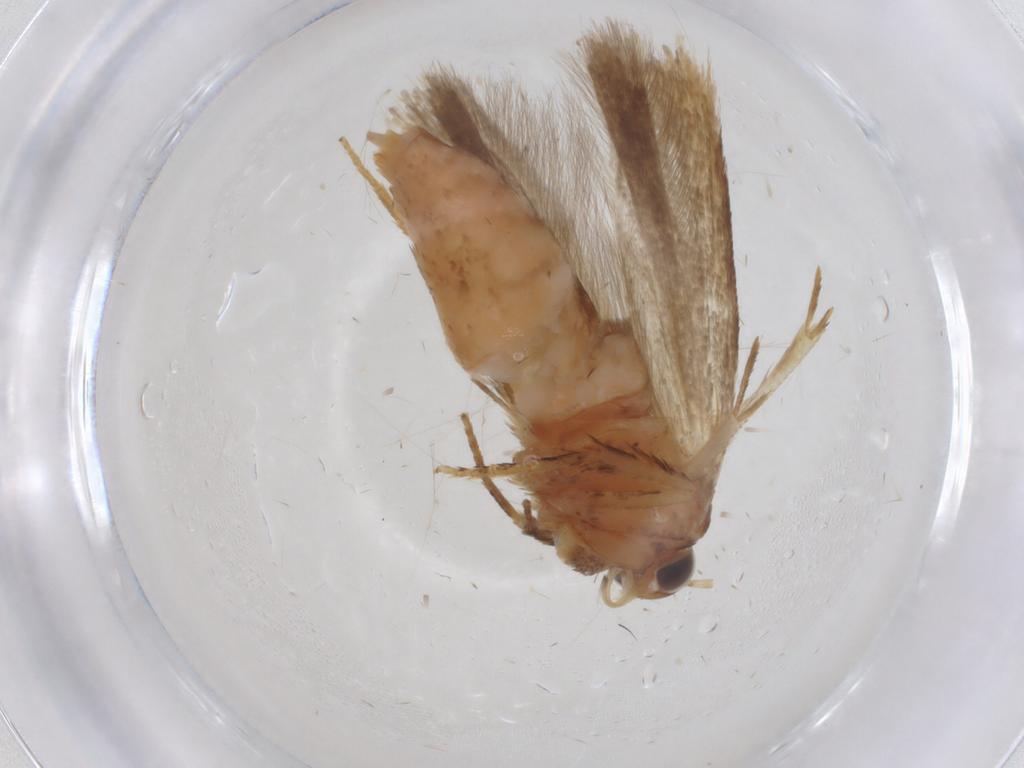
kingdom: Animalia
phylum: Arthropoda
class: Insecta
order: Lepidoptera
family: Gelechiidae
